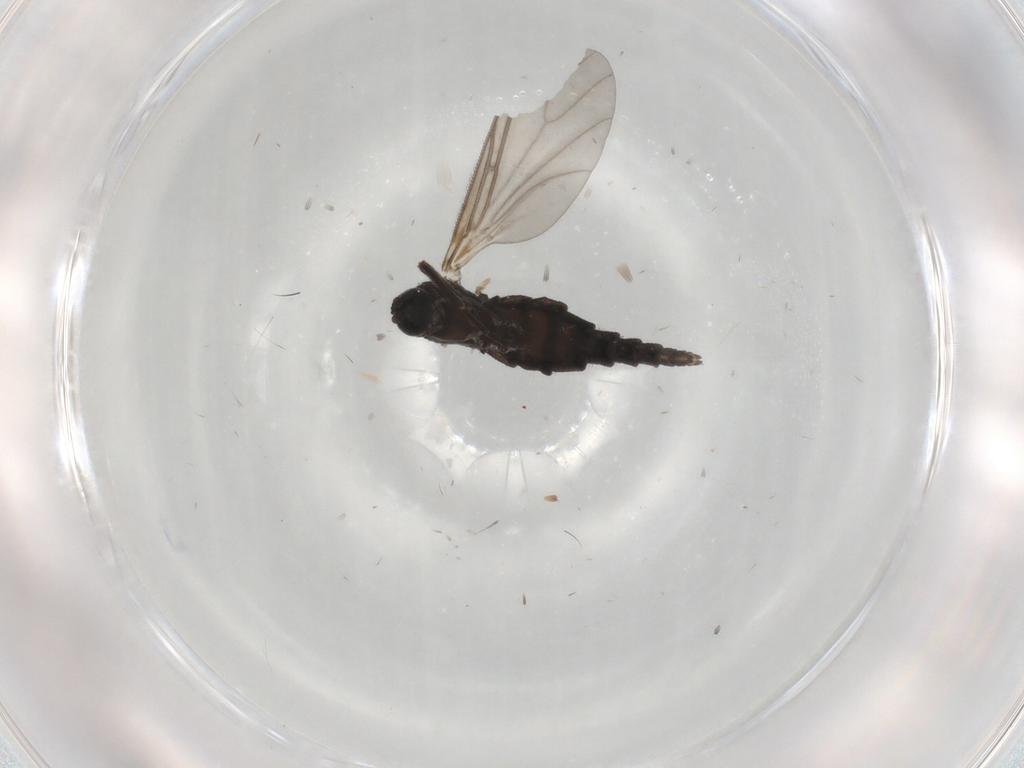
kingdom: Animalia
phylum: Arthropoda
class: Insecta
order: Diptera
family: Sciaridae
